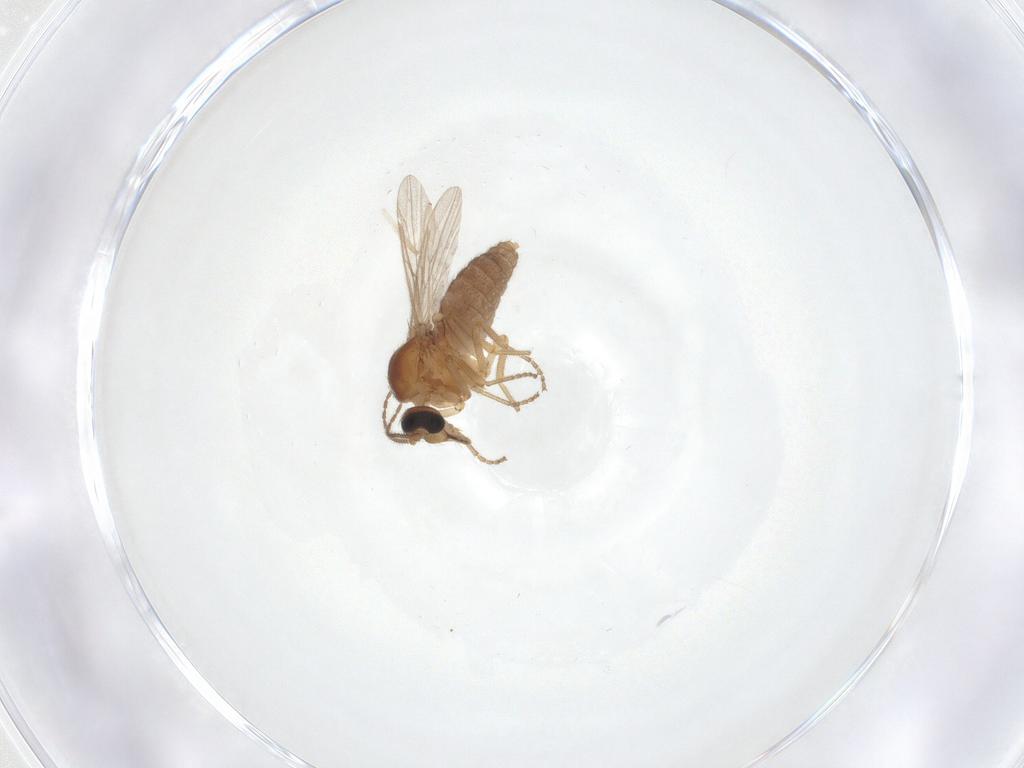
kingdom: Animalia
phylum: Arthropoda
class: Insecta
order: Diptera
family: Ceratopogonidae
